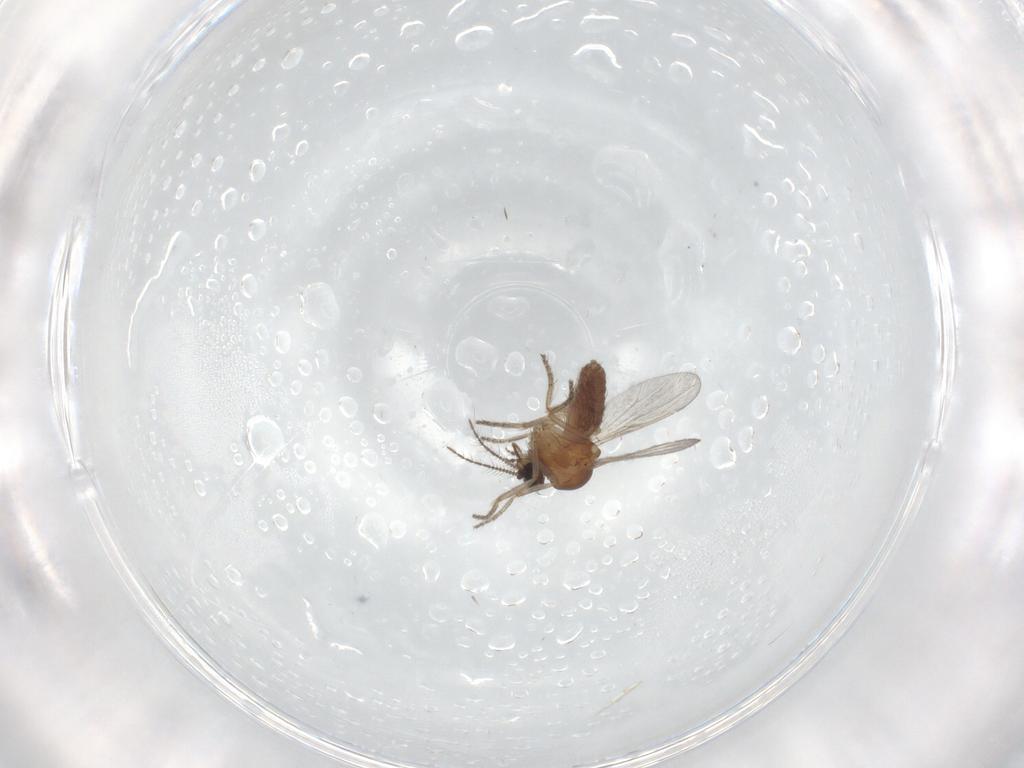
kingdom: Animalia
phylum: Arthropoda
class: Insecta
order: Diptera
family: Ceratopogonidae
